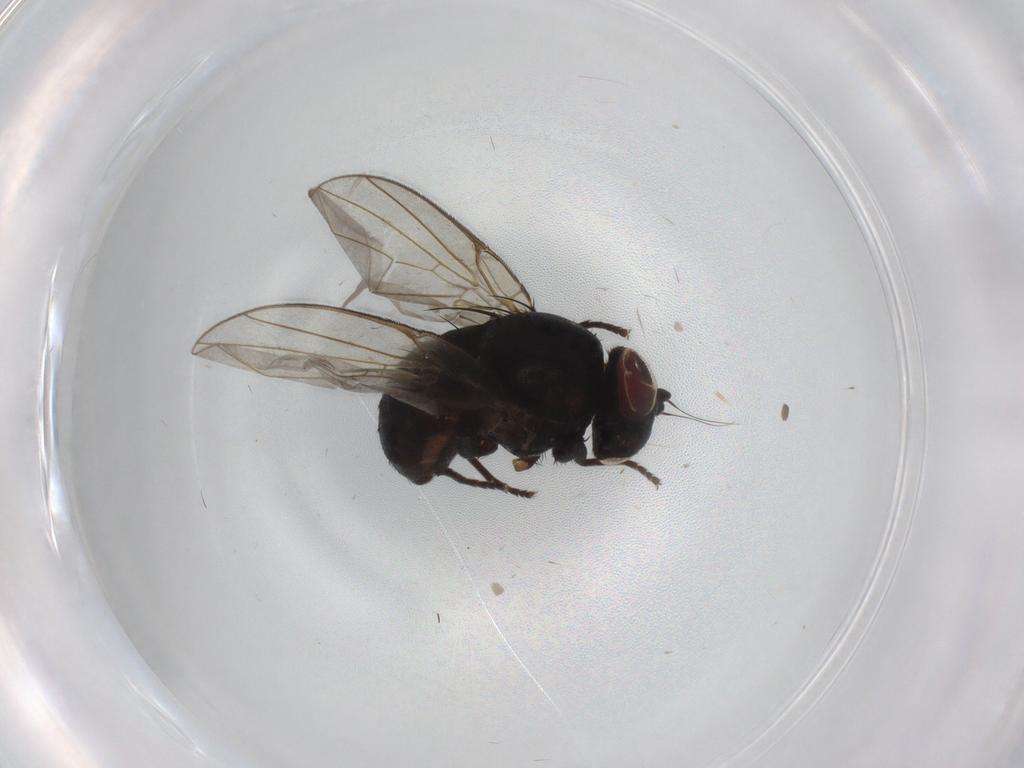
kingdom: Animalia
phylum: Arthropoda
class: Insecta
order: Diptera
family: Agromyzidae
